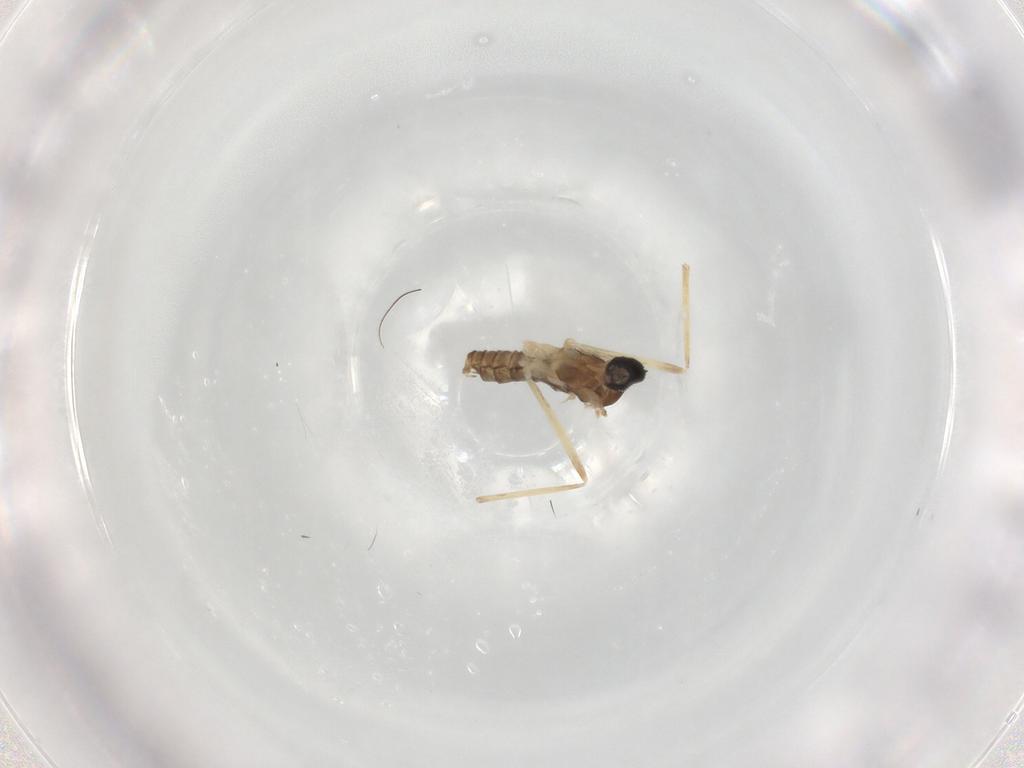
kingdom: Animalia
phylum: Arthropoda
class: Insecta
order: Diptera
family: Cecidomyiidae
